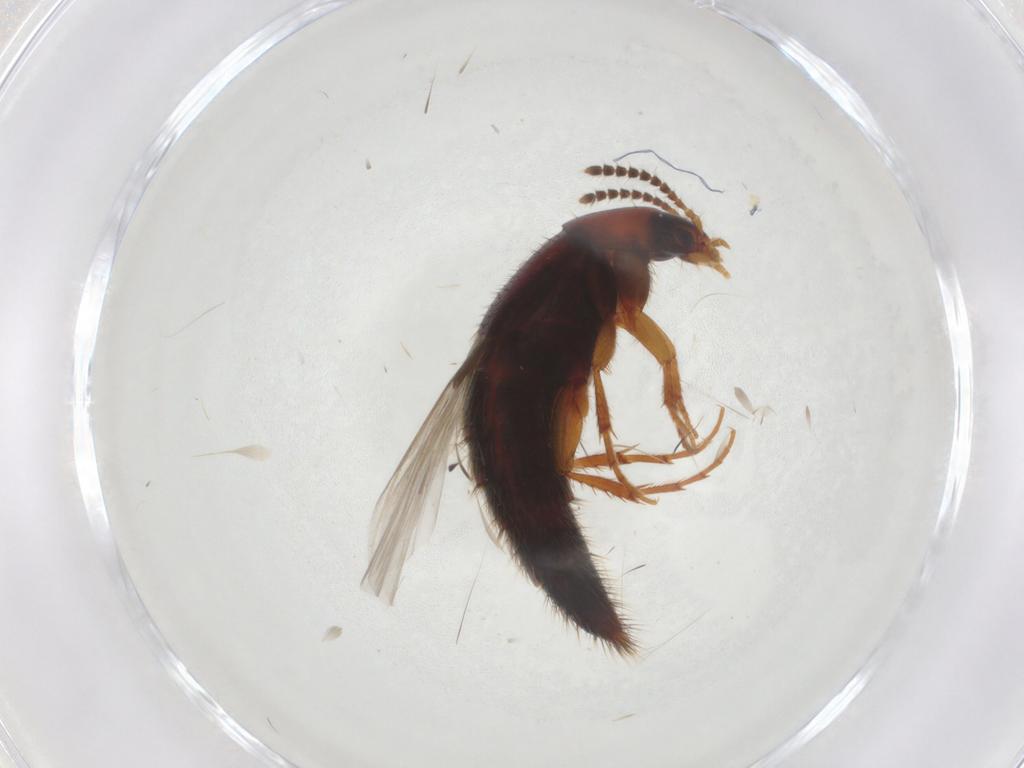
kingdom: Animalia
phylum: Arthropoda
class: Insecta
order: Coleoptera
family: Staphylinidae
